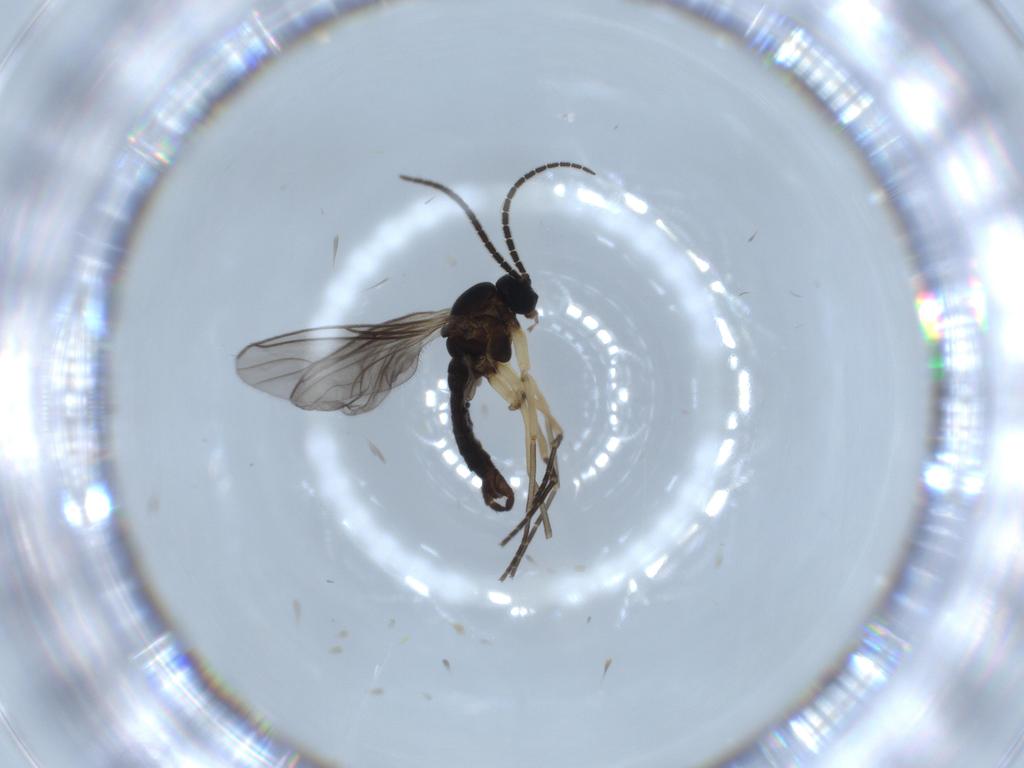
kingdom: Animalia
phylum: Arthropoda
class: Insecta
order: Diptera
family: Sciaridae
